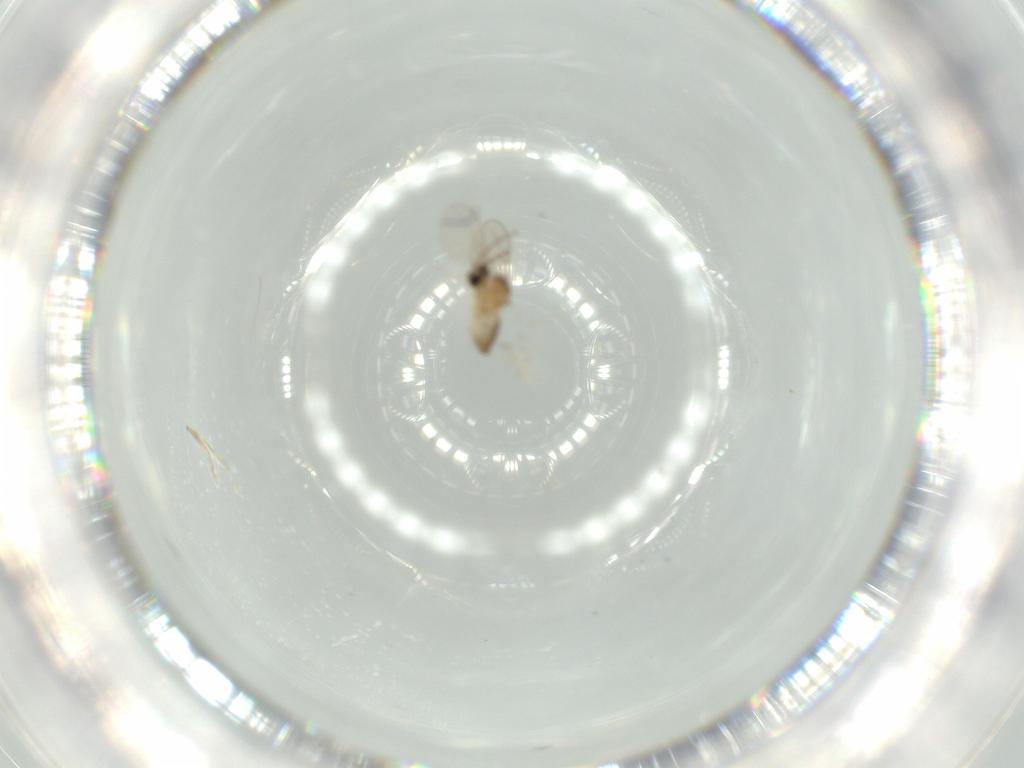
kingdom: Animalia
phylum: Arthropoda
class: Insecta
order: Diptera
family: Cecidomyiidae
